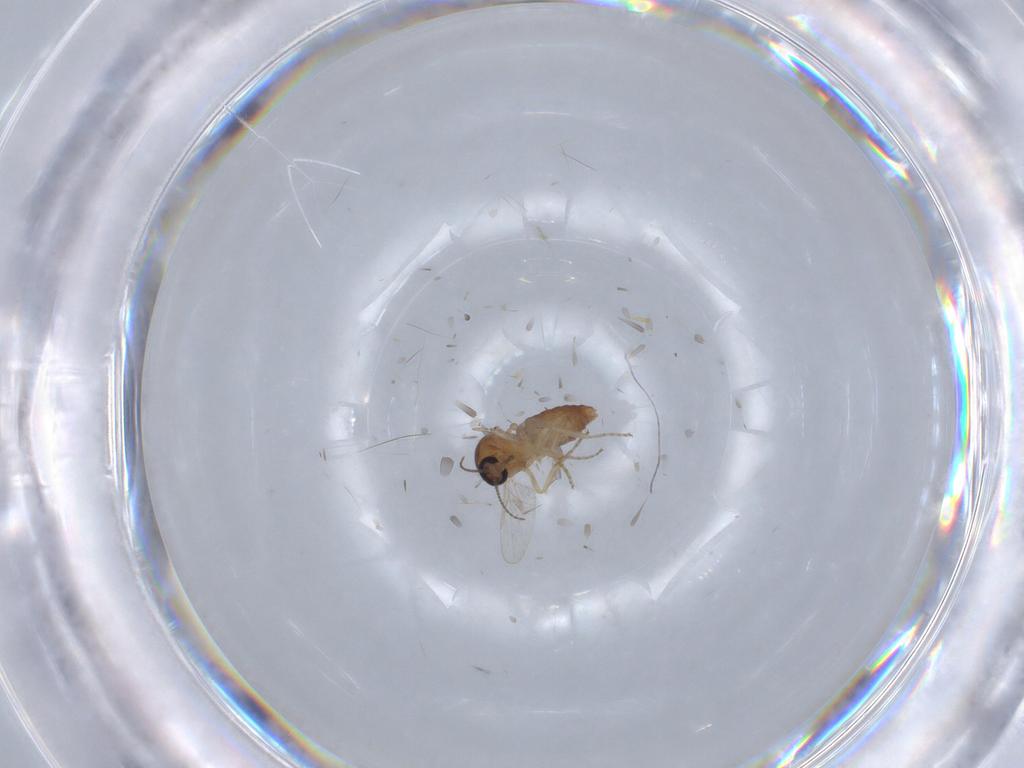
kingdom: Animalia
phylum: Arthropoda
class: Insecta
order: Diptera
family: Ceratopogonidae
